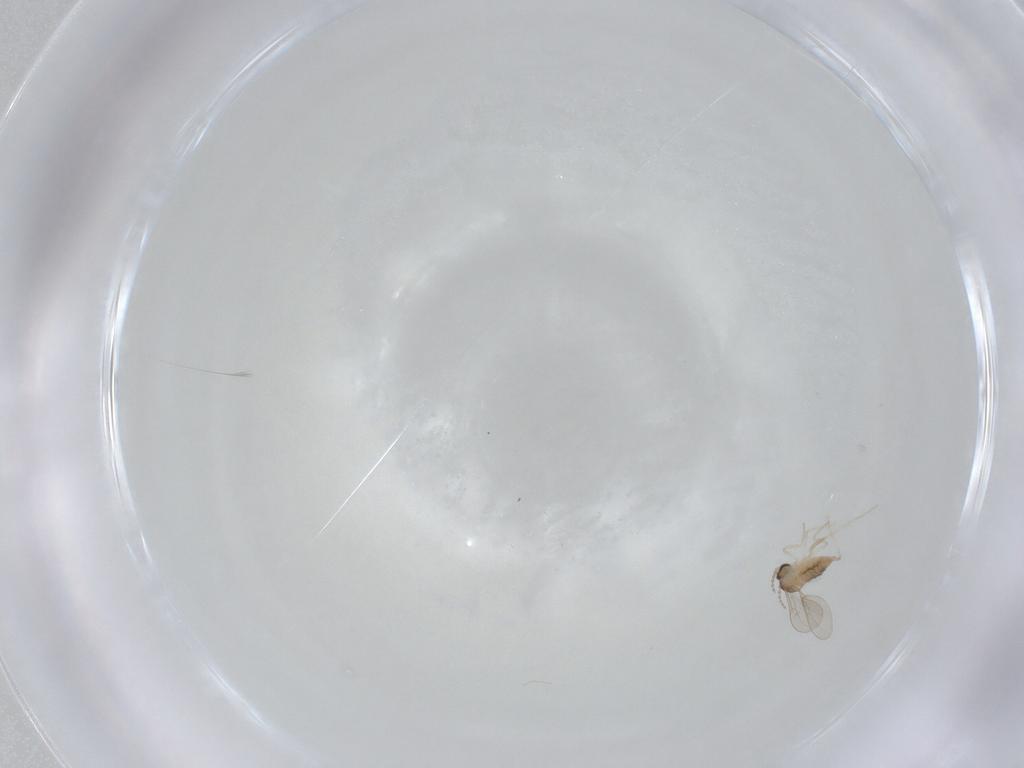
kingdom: Animalia
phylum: Arthropoda
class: Insecta
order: Diptera
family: Cecidomyiidae
